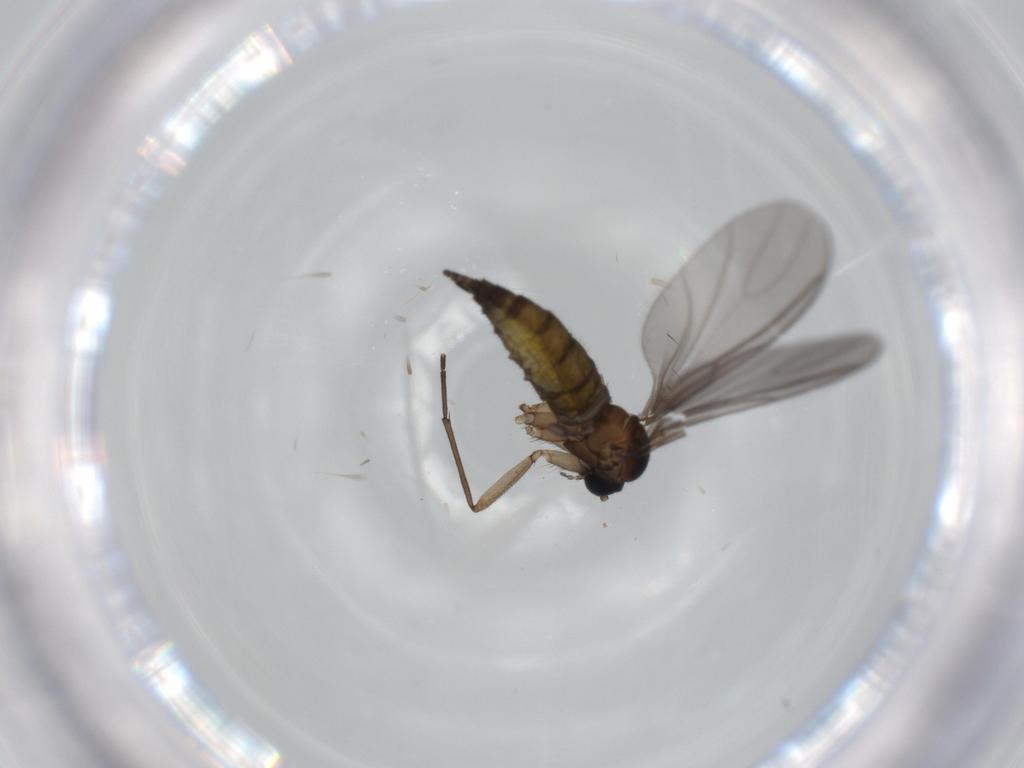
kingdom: Animalia
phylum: Arthropoda
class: Insecta
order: Diptera
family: Sciaridae
